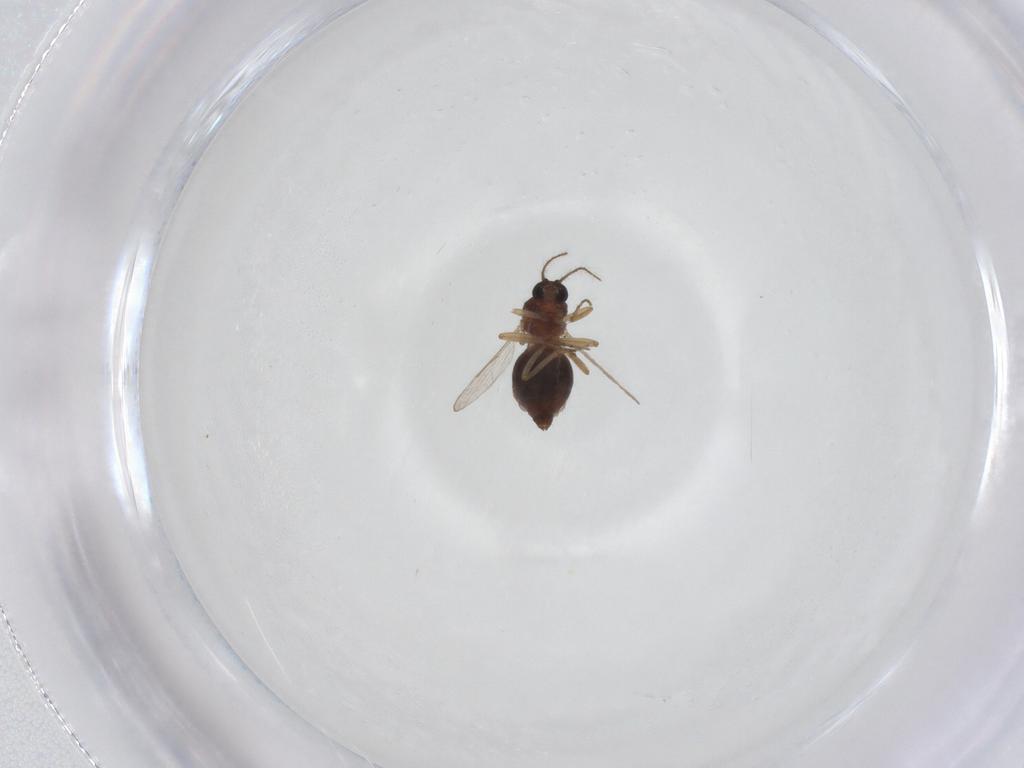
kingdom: Animalia
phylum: Arthropoda
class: Insecta
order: Diptera
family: Ceratopogonidae
